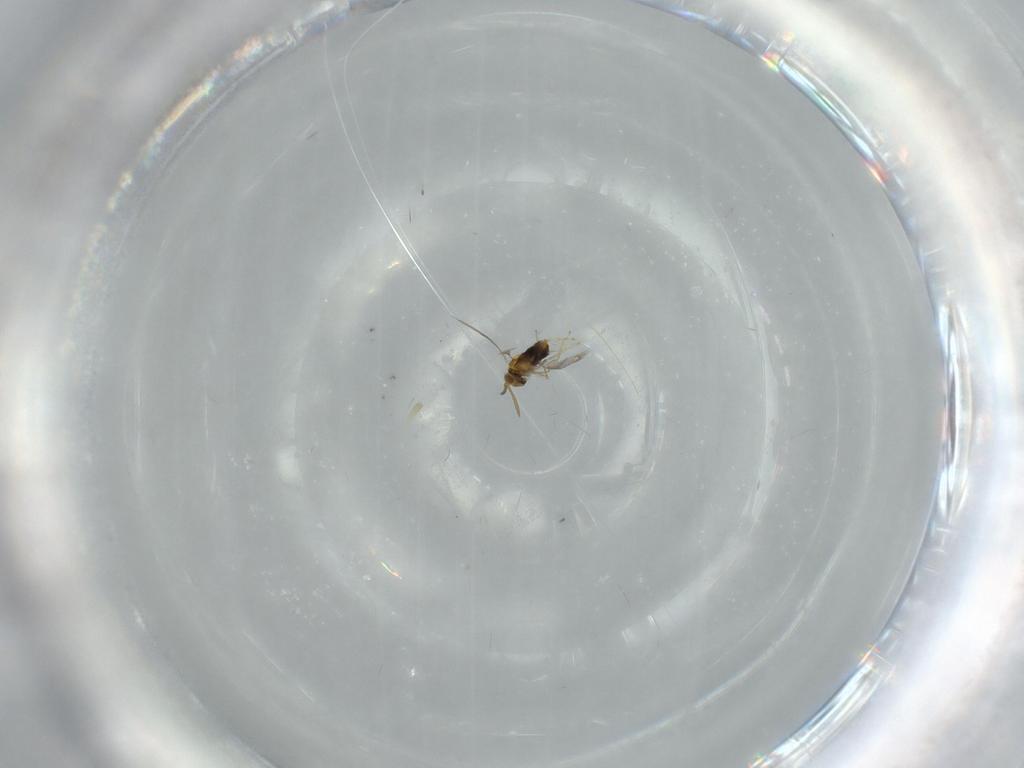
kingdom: Animalia
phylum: Arthropoda
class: Insecta
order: Hymenoptera
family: Aphelinidae
